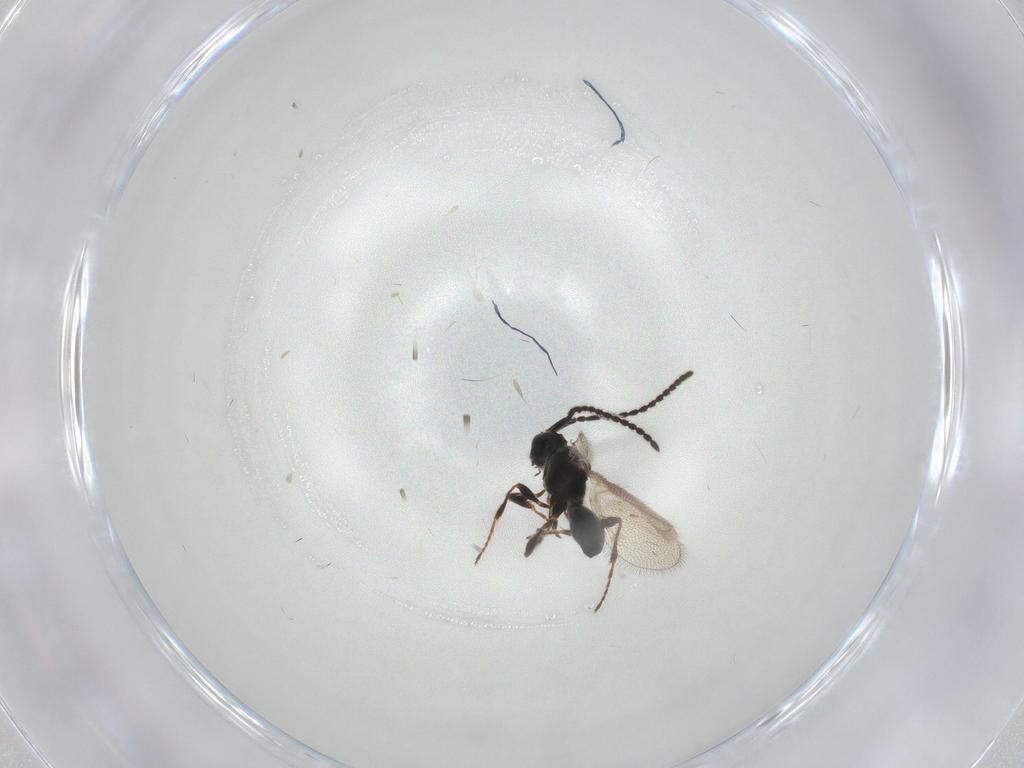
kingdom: Animalia
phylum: Arthropoda
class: Insecta
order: Hymenoptera
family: Diapriidae
